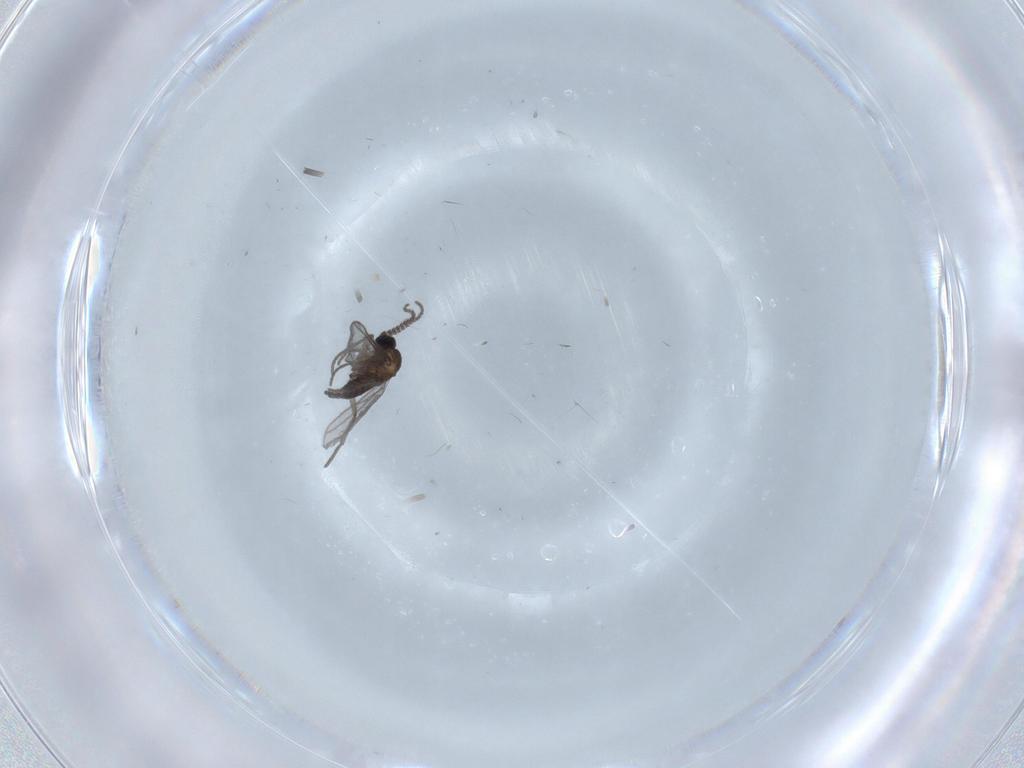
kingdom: Animalia
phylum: Arthropoda
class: Insecta
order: Diptera
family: Chironomidae
